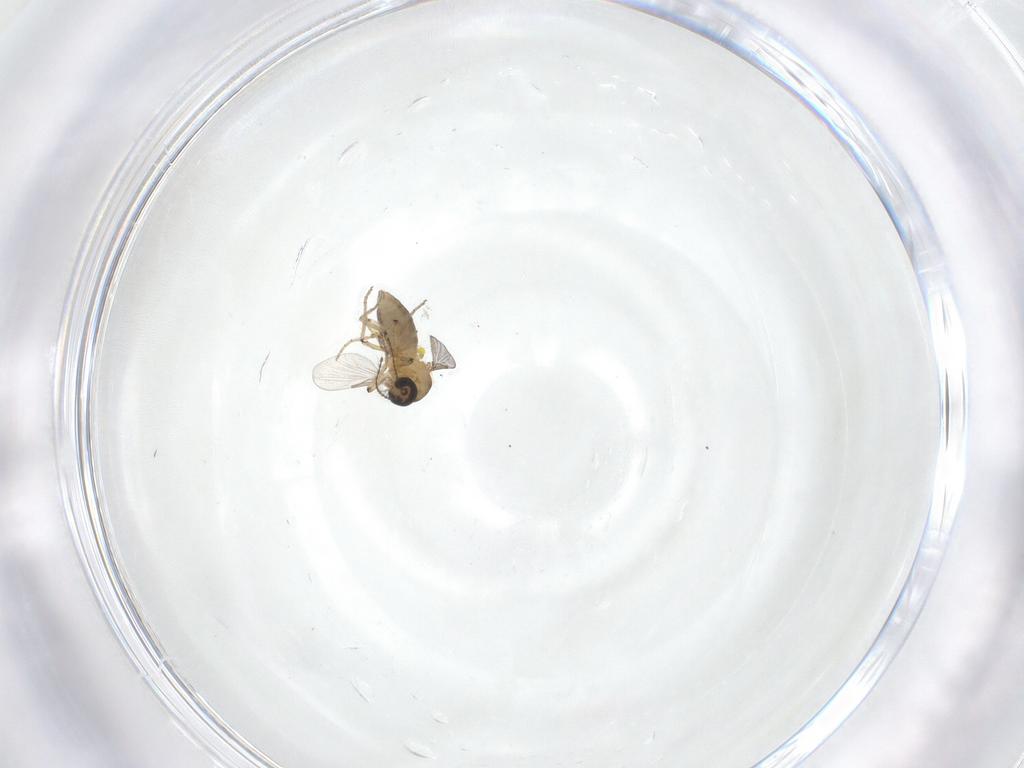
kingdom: Animalia
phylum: Arthropoda
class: Insecta
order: Diptera
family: Ceratopogonidae
